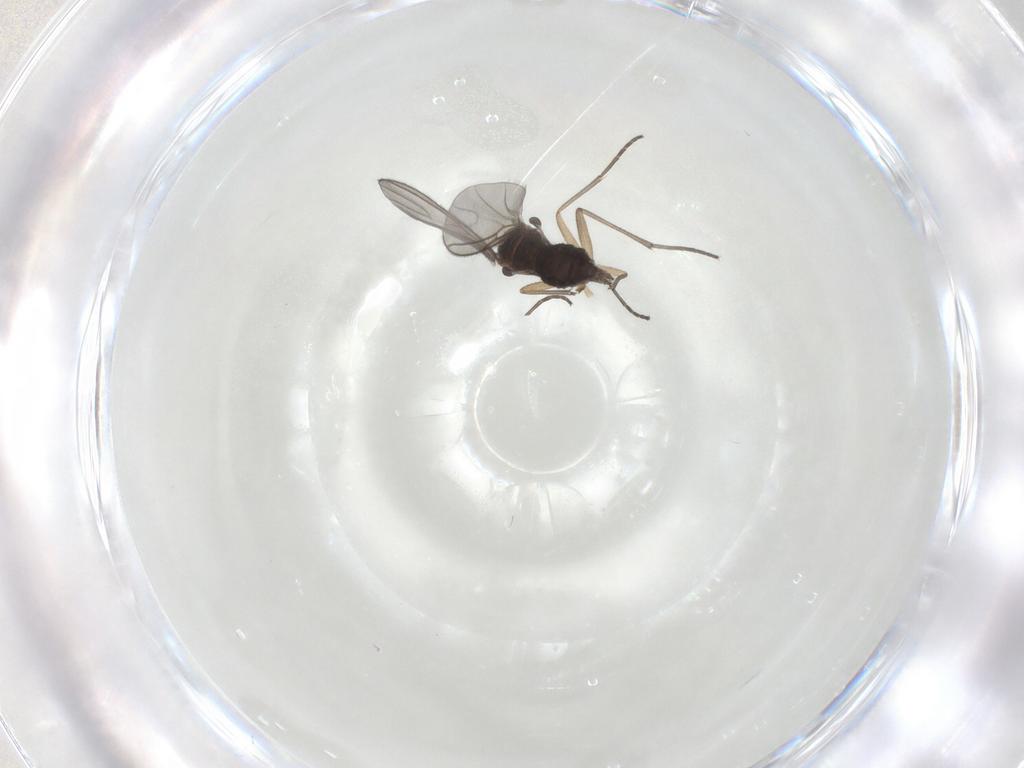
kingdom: Animalia
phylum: Arthropoda
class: Insecta
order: Diptera
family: Sciaridae
